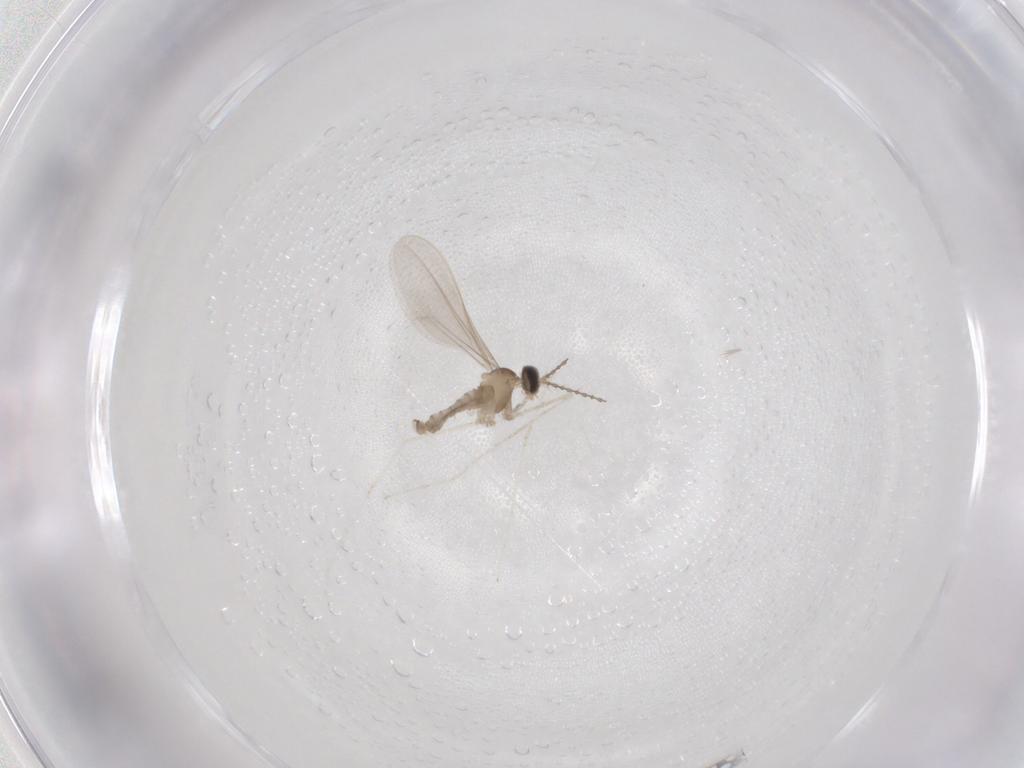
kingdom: Animalia
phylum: Arthropoda
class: Insecta
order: Diptera
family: Cecidomyiidae
